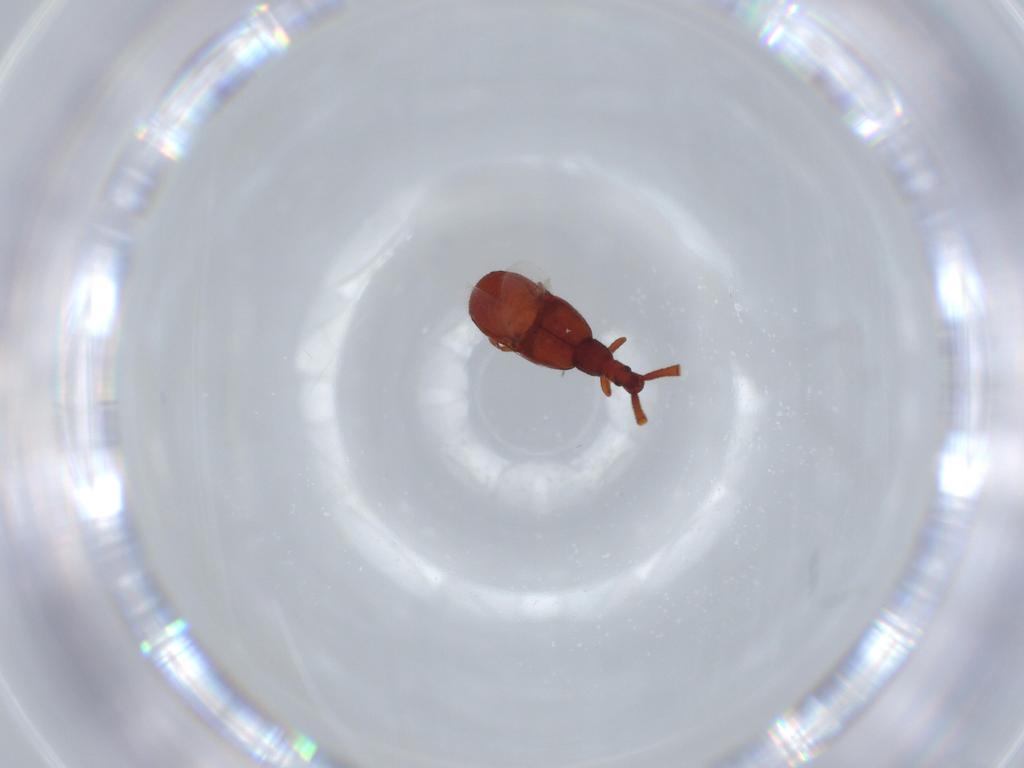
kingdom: Animalia
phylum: Arthropoda
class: Insecta
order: Coleoptera
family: Staphylinidae
